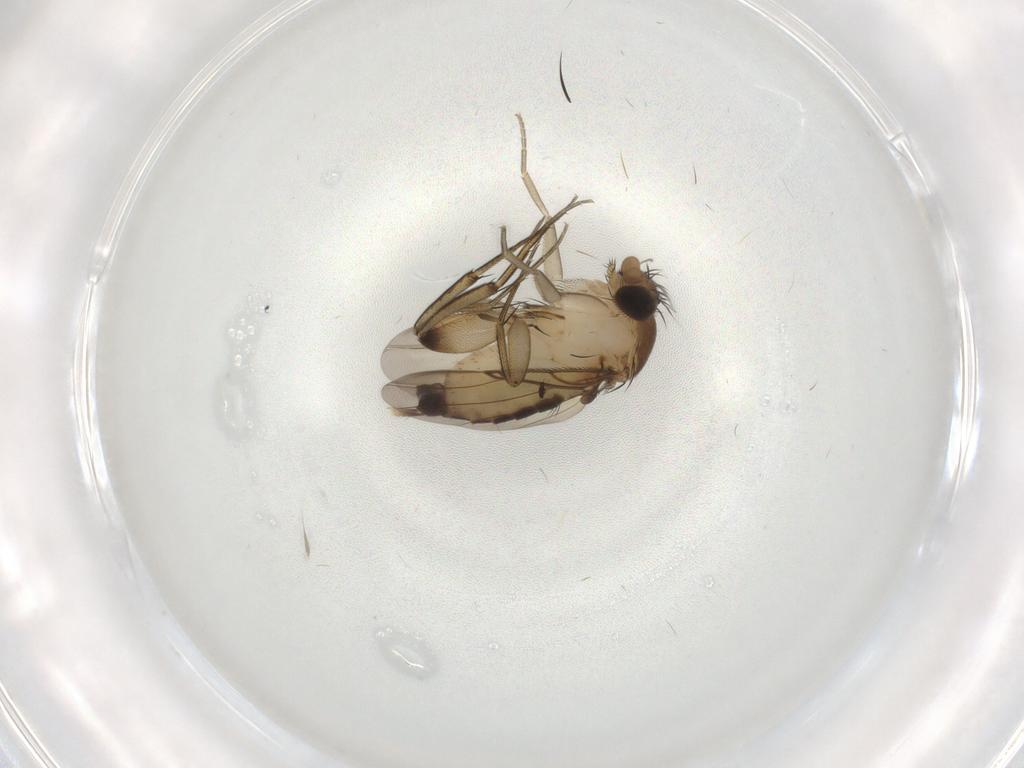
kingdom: Animalia
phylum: Arthropoda
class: Insecta
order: Diptera
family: Phoridae
